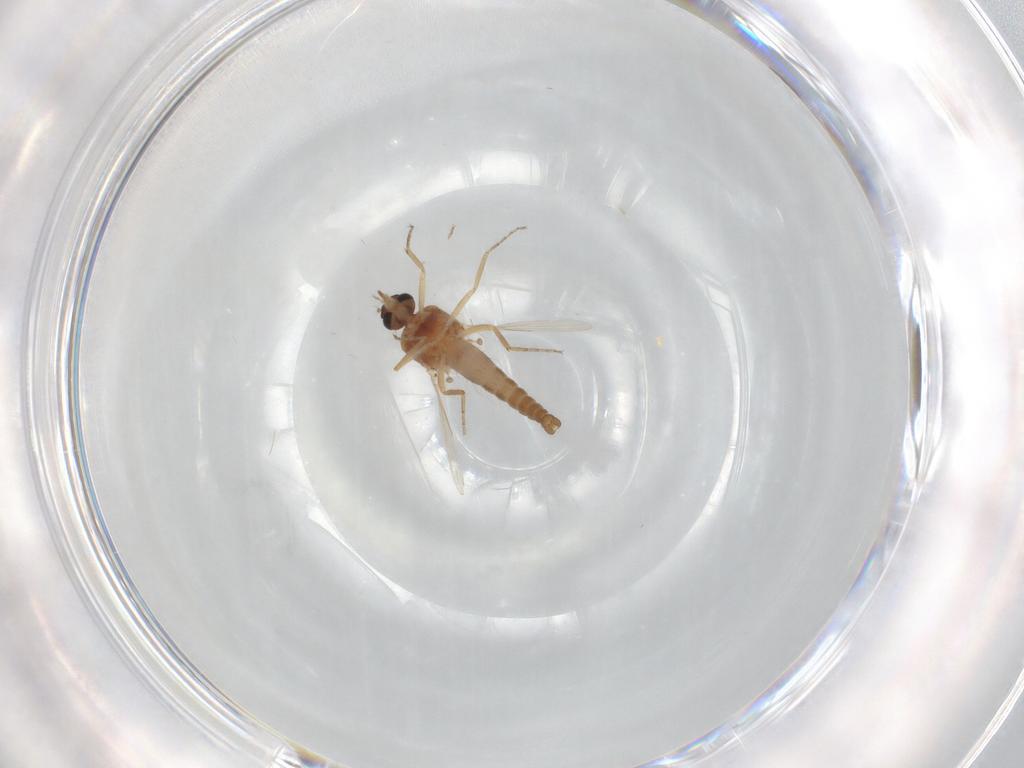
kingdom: Animalia
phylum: Arthropoda
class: Insecta
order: Diptera
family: Ceratopogonidae
